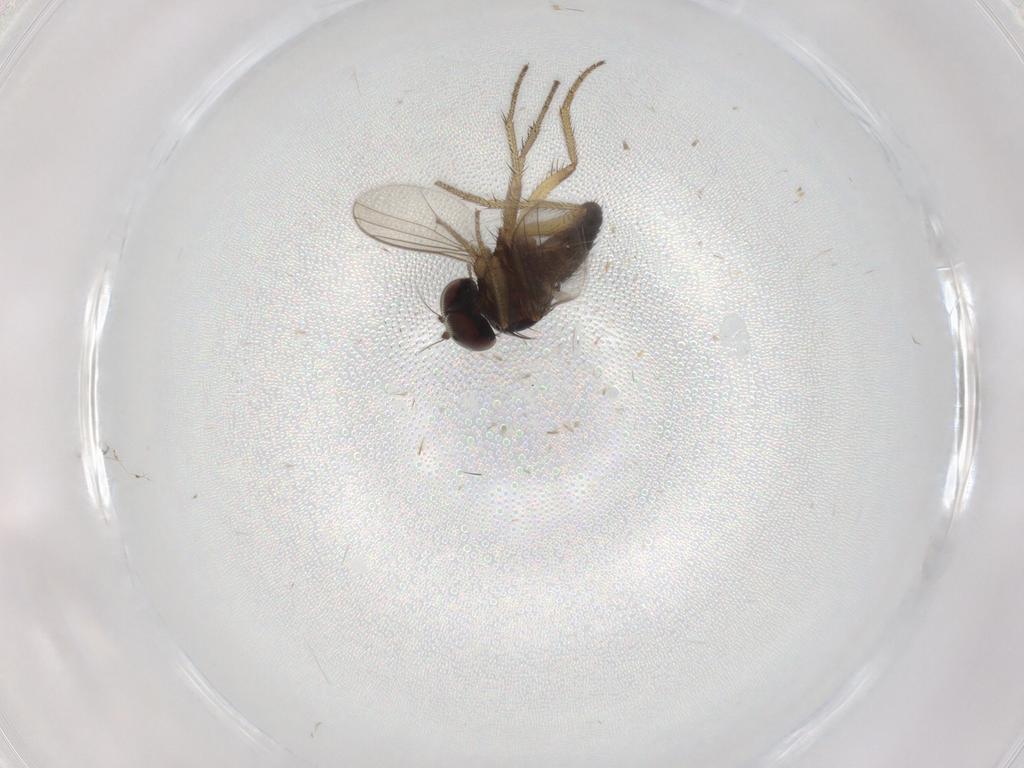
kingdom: Animalia
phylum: Arthropoda
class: Insecta
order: Diptera
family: Ceratopogonidae
